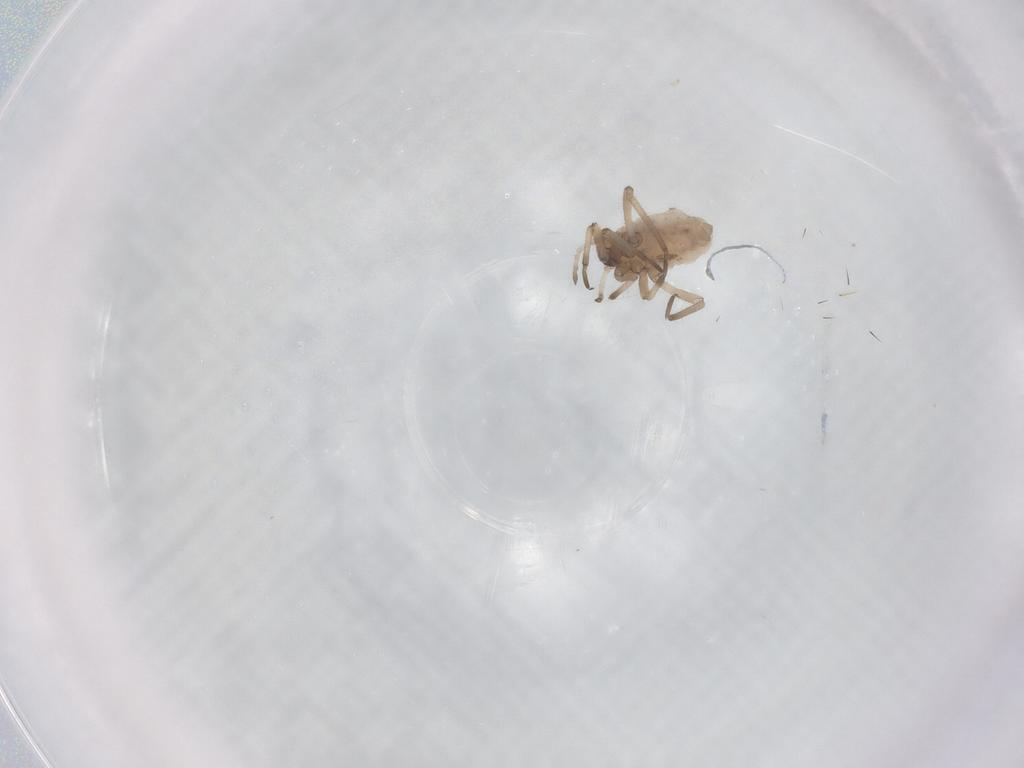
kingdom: Animalia
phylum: Arthropoda
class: Insecta
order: Hemiptera
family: Aphididae
